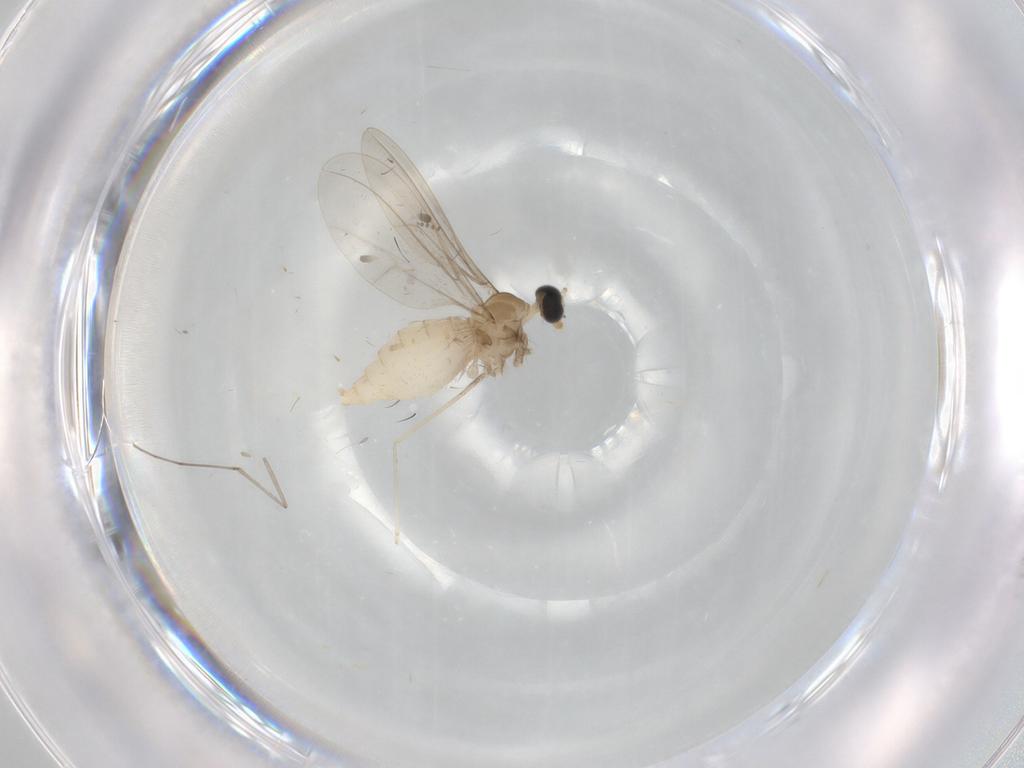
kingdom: Animalia
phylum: Arthropoda
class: Insecta
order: Diptera
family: Cecidomyiidae
